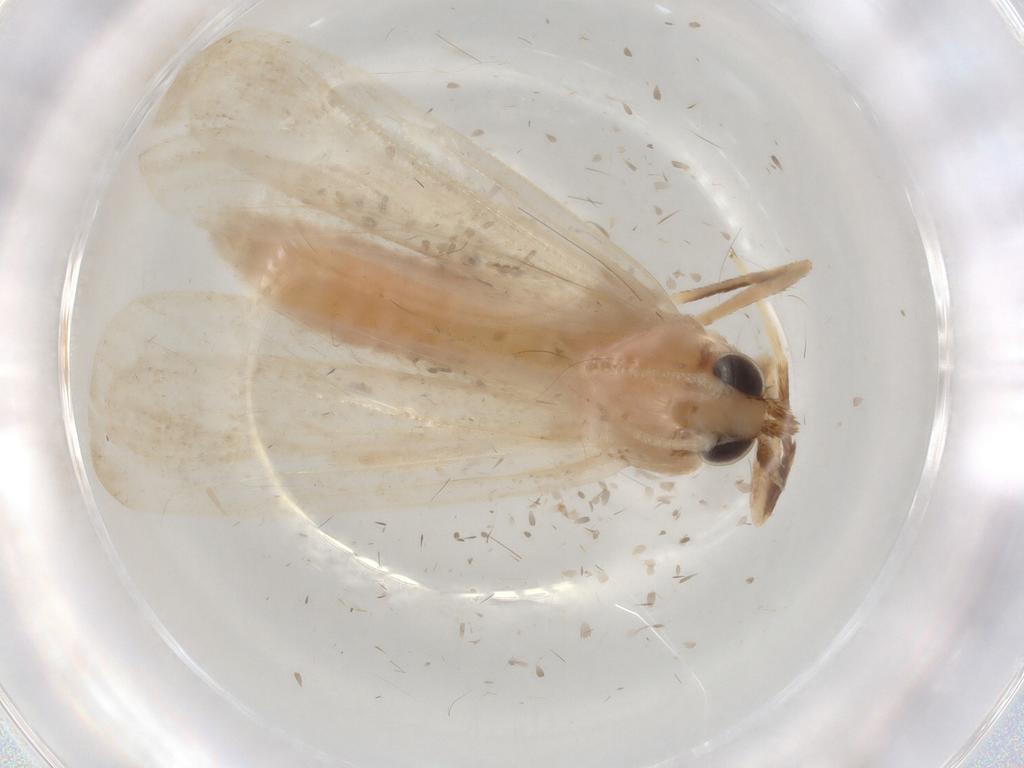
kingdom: Animalia
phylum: Arthropoda
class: Insecta
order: Lepidoptera
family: Crambidae
